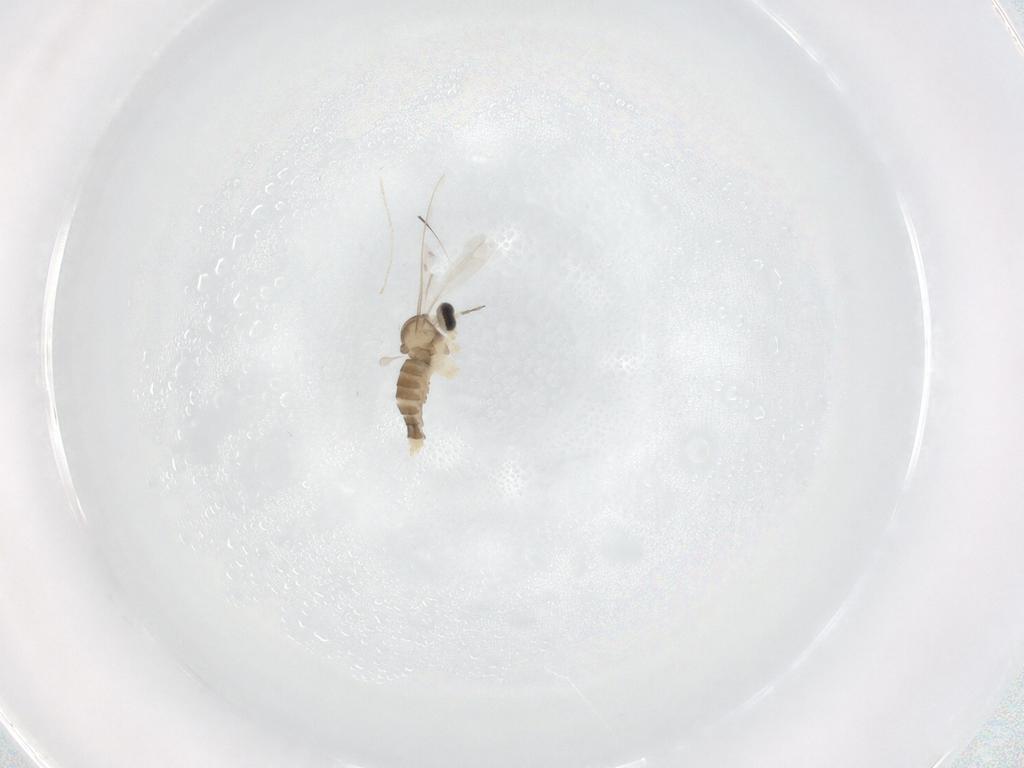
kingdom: Animalia
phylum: Arthropoda
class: Insecta
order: Diptera
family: Cecidomyiidae
